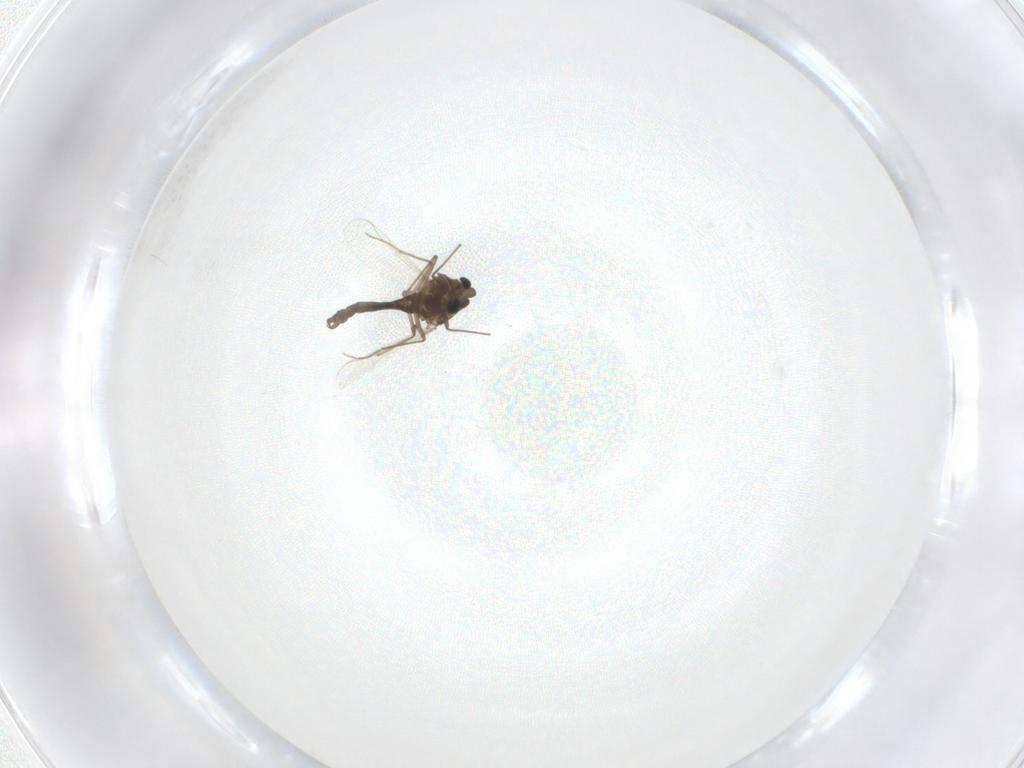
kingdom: Animalia
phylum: Arthropoda
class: Insecta
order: Diptera
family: Chironomidae
